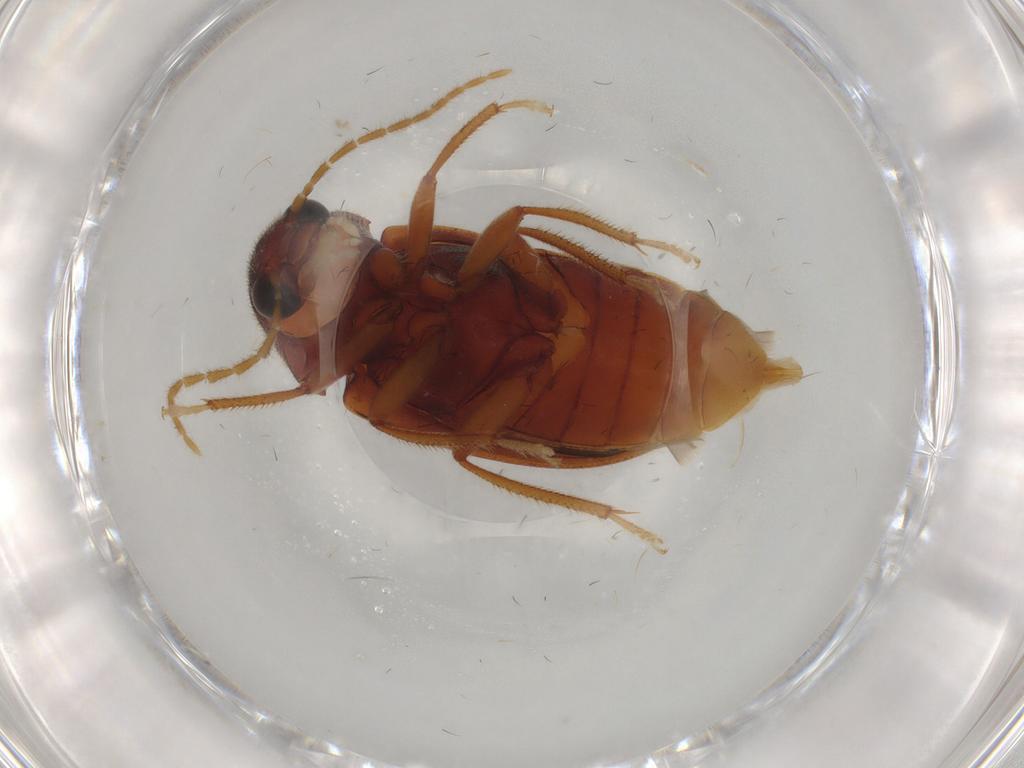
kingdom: Animalia
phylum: Arthropoda
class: Insecta
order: Coleoptera
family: Ptilodactylidae
